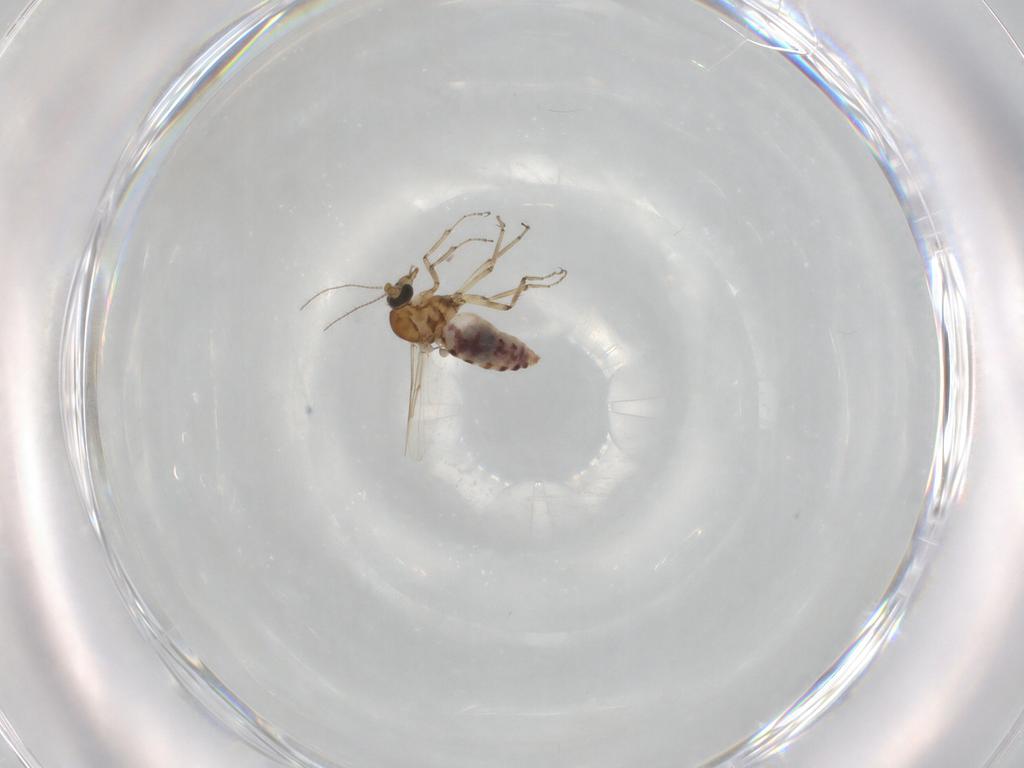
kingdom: Animalia
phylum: Arthropoda
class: Insecta
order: Diptera
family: Chironomidae
